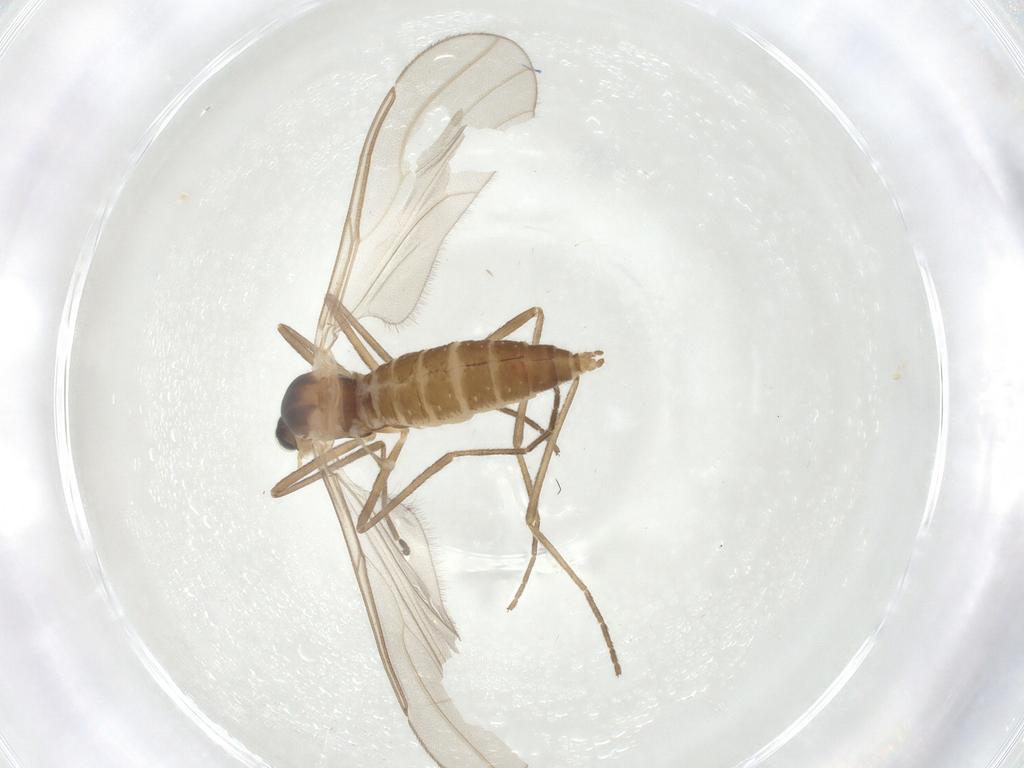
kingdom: Animalia
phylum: Arthropoda
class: Insecta
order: Diptera
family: Cecidomyiidae
